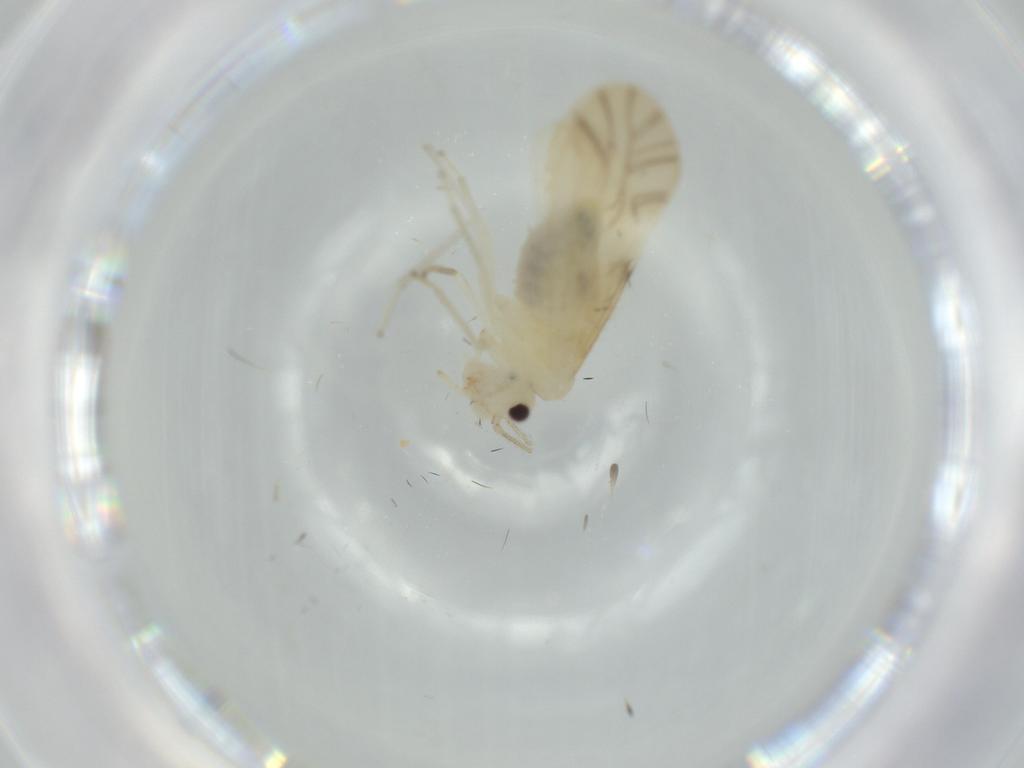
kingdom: Animalia
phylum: Arthropoda
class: Insecta
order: Psocodea
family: Caeciliusidae
